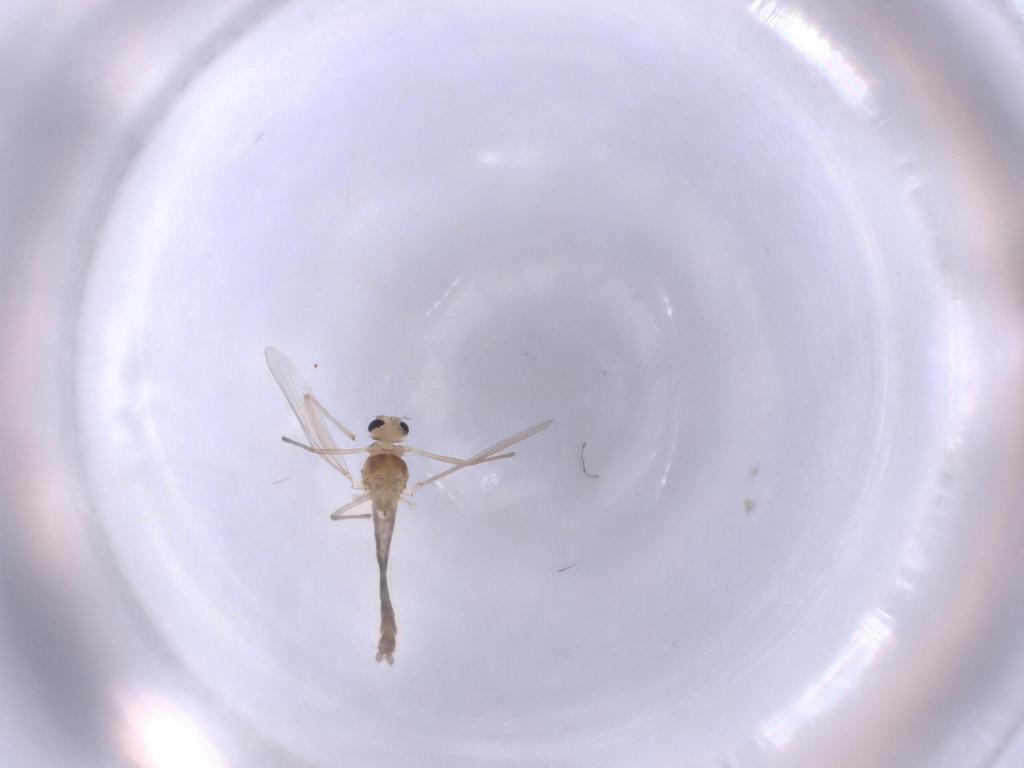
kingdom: Animalia
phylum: Arthropoda
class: Insecta
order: Diptera
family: Chironomidae
